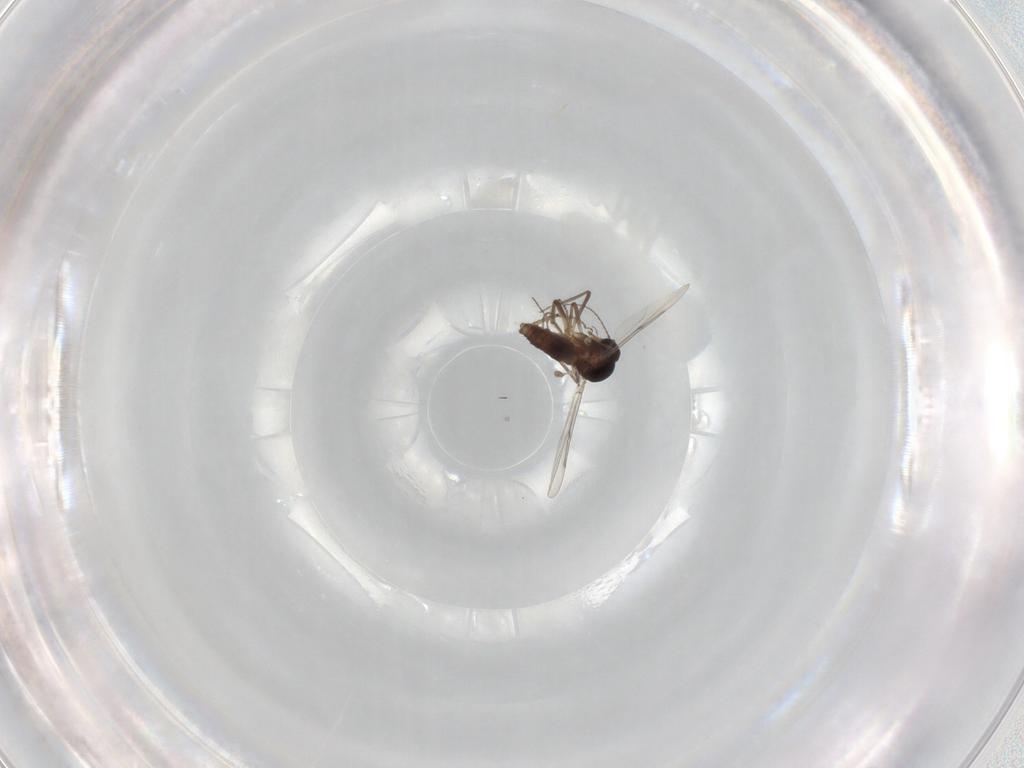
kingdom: Animalia
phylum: Arthropoda
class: Insecta
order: Diptera
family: Ceratopogonidae
